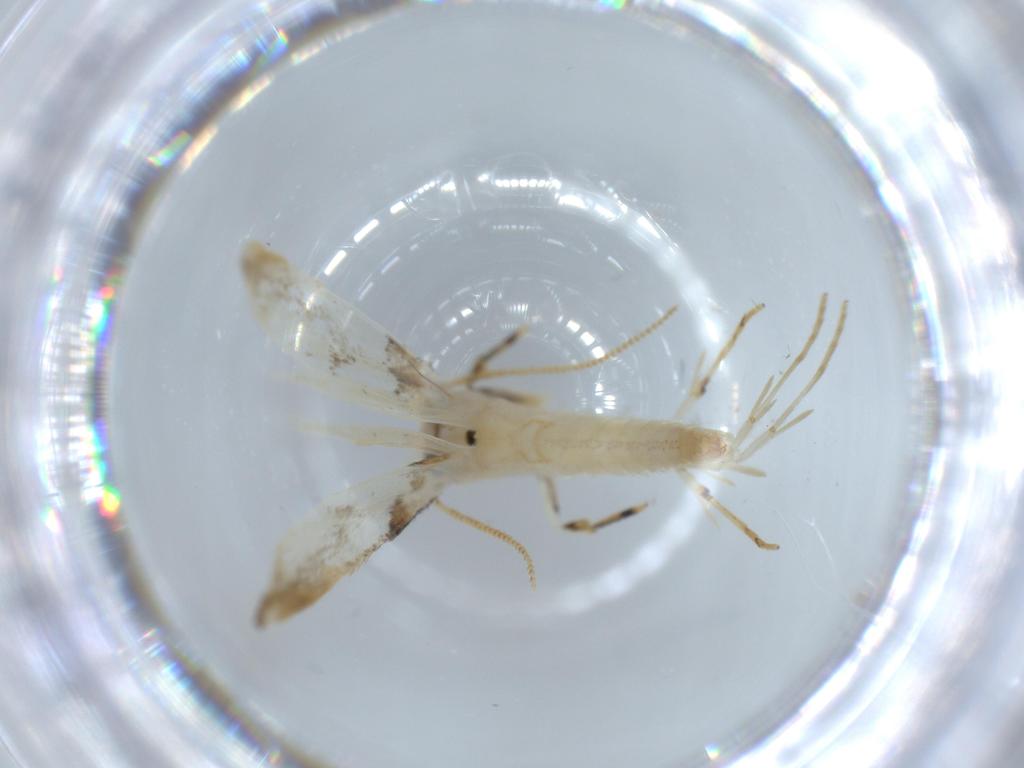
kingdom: Animalia
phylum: Arthropoda
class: Insecta
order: Lepidoptera
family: Tineidae
